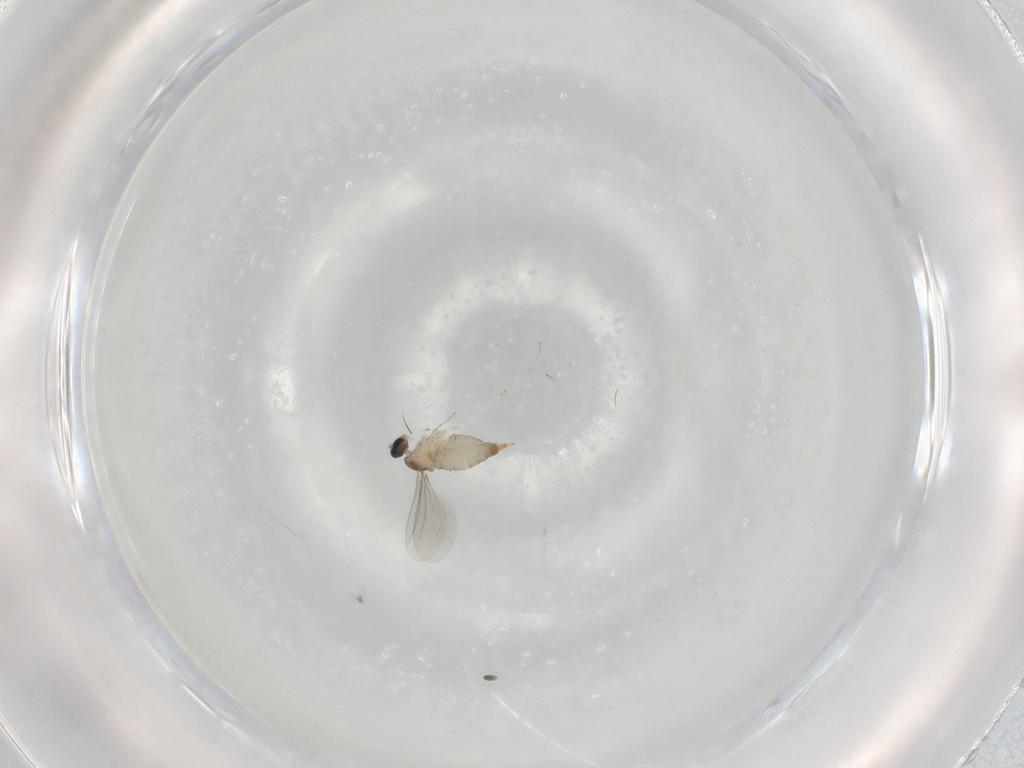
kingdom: Animalia
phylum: Arthropoda
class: Insecta
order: Diptera
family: Cecidomyiidae
